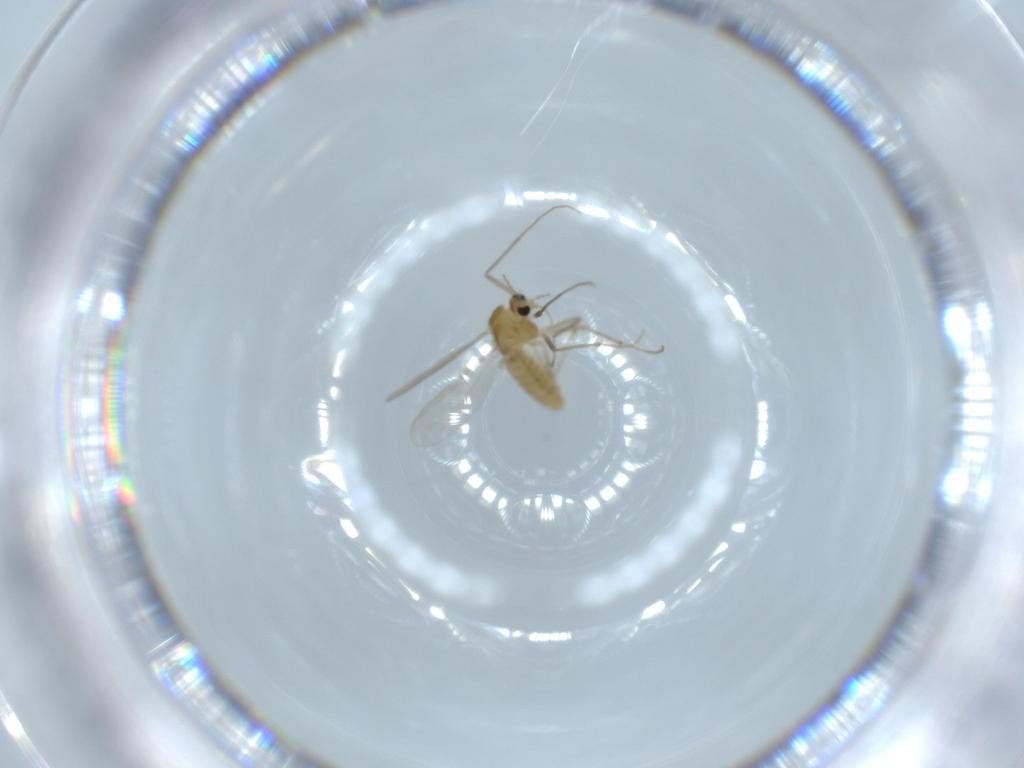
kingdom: Animalia
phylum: Arthropoda
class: Insecta
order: Diptera
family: Chironomidae
